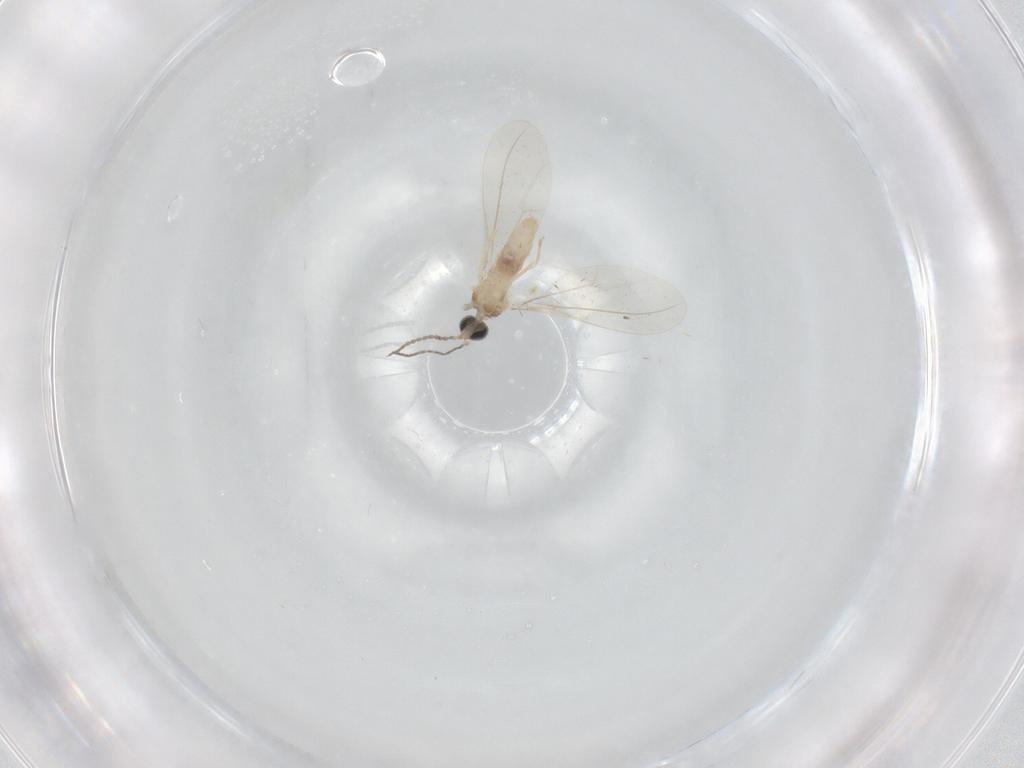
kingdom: Animalia
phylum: Arthropoda
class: Insecta
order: Diptera
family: Cecidomyiidae
